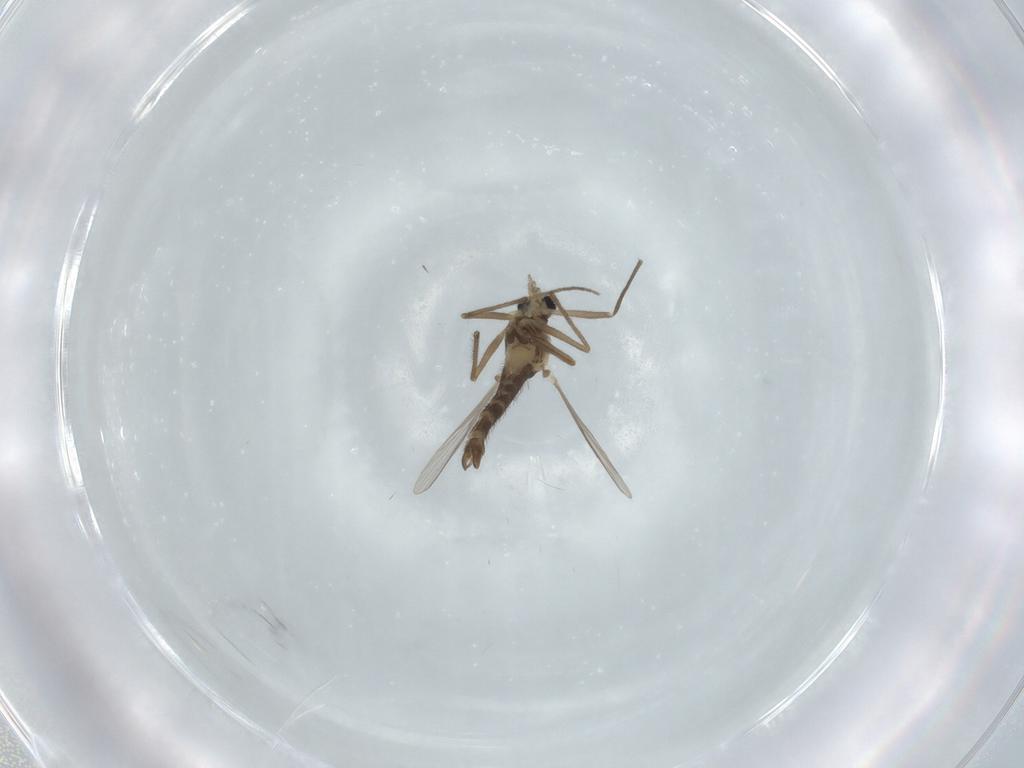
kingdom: Animalia
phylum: Arthropoda
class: Insecta
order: Diptera
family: Chironomidae
